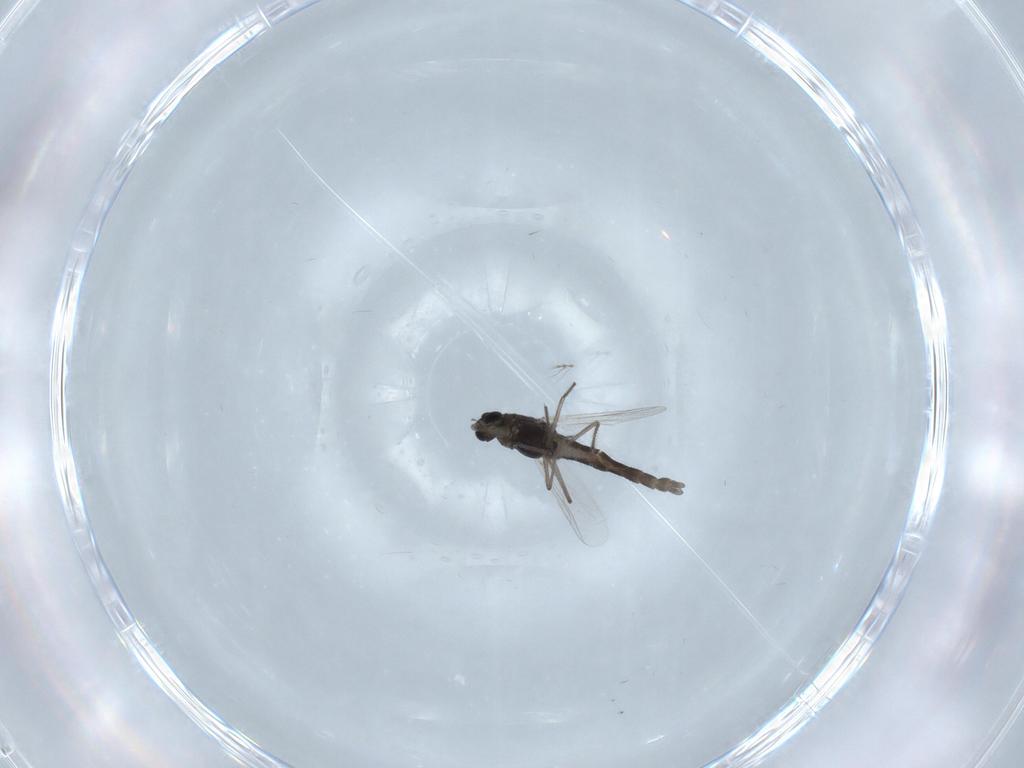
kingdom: Animalia
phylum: Arthropoda
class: Insecta
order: Diptera
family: Chironomidae
